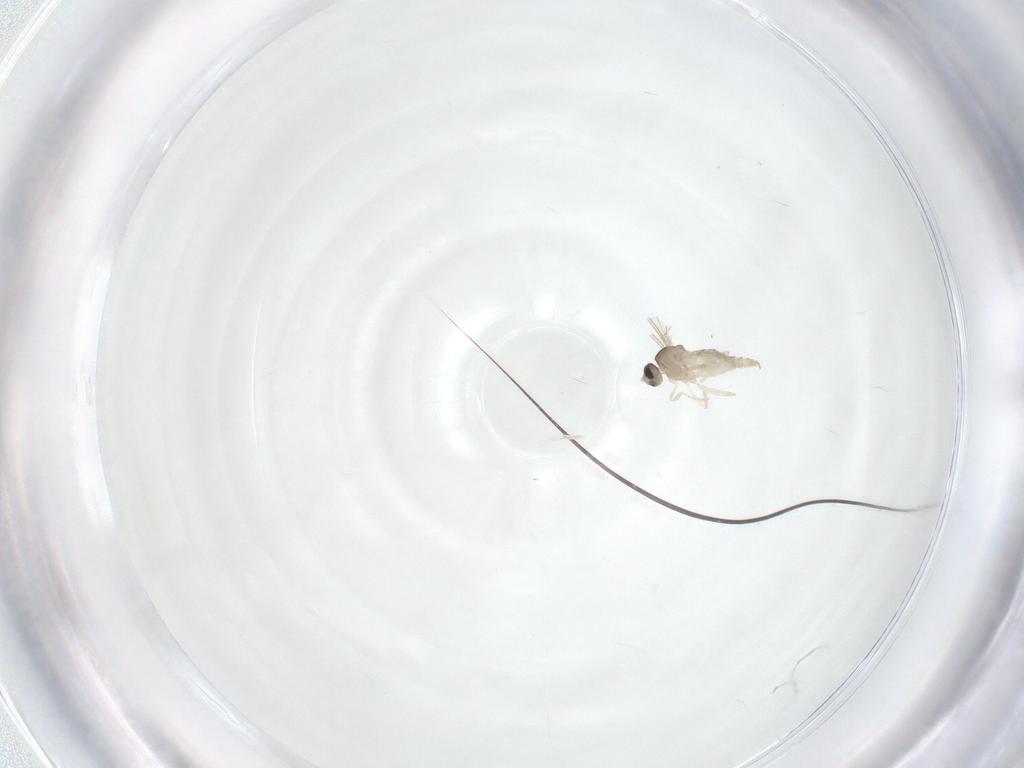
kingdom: Animalia
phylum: Arthropoda
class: Insecta
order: Diptera
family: Cecidomyiidae
